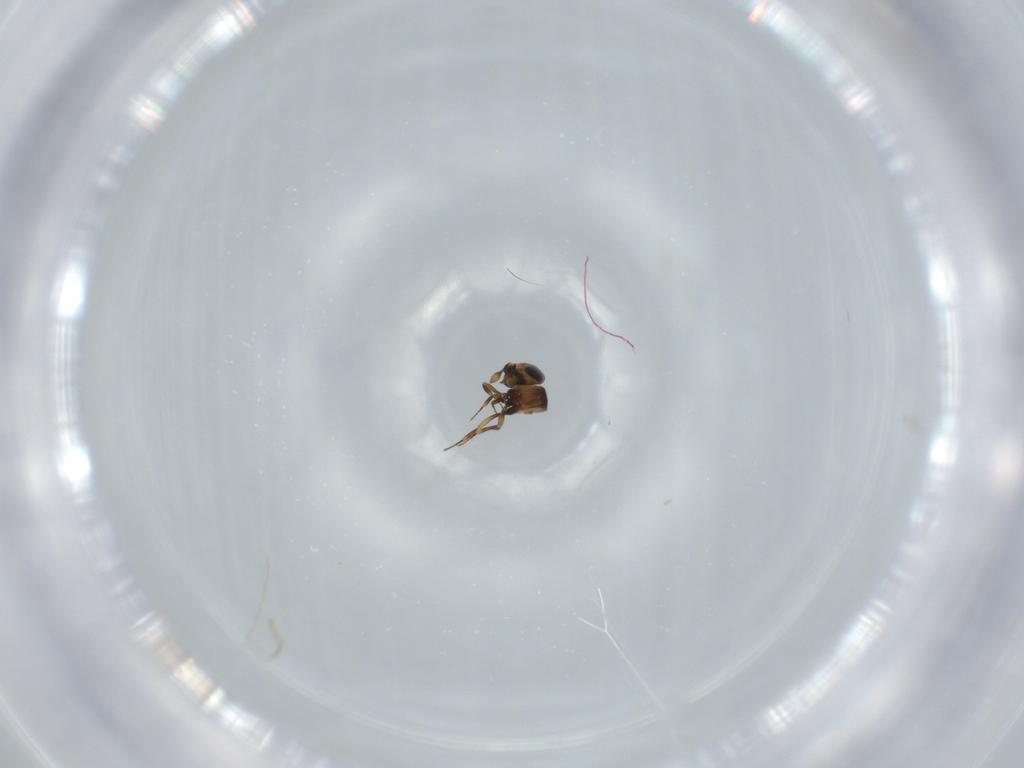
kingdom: Animalia
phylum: Arthropoda
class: Insecta
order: Hymenoptera
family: Scelionidae
